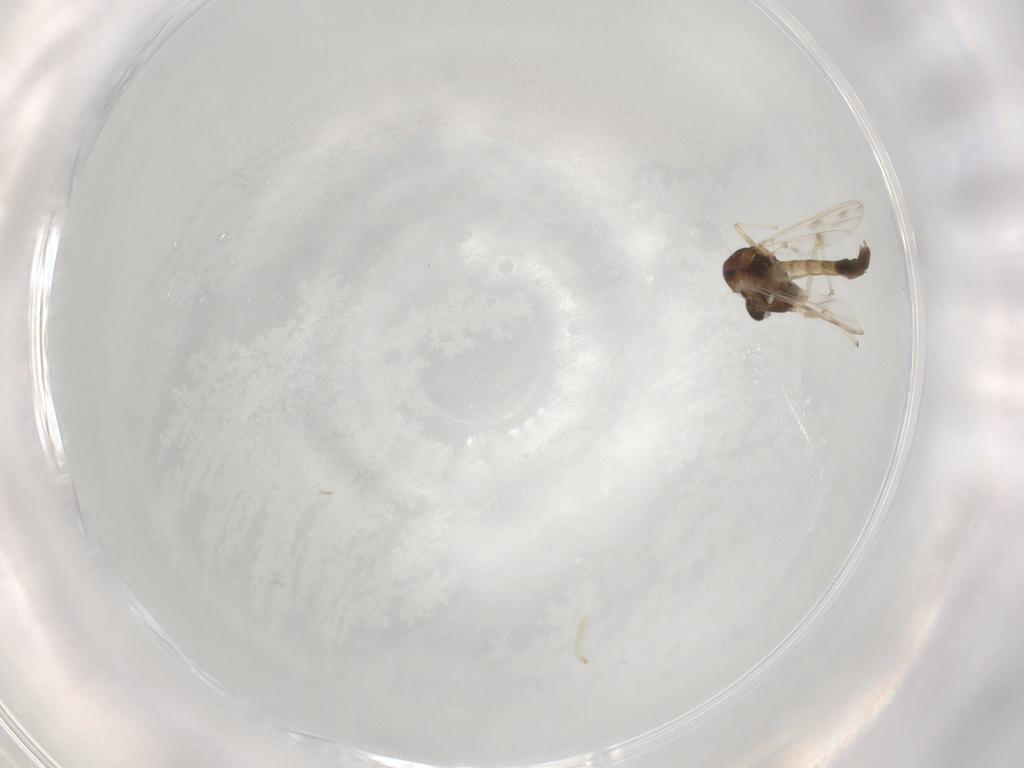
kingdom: Animalia
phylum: Arthropoda
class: Insecta
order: Diptera
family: Chironomidae
